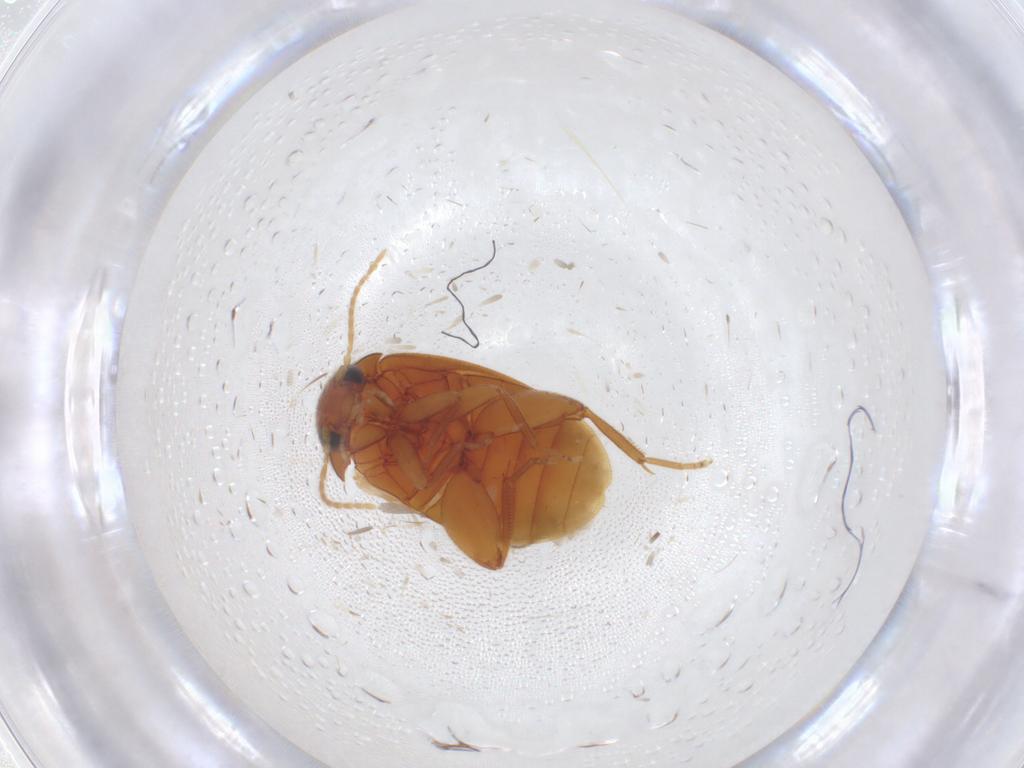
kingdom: Animalia
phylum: Arthropoda
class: Insecta
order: Coleoptera
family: Scirtidae
